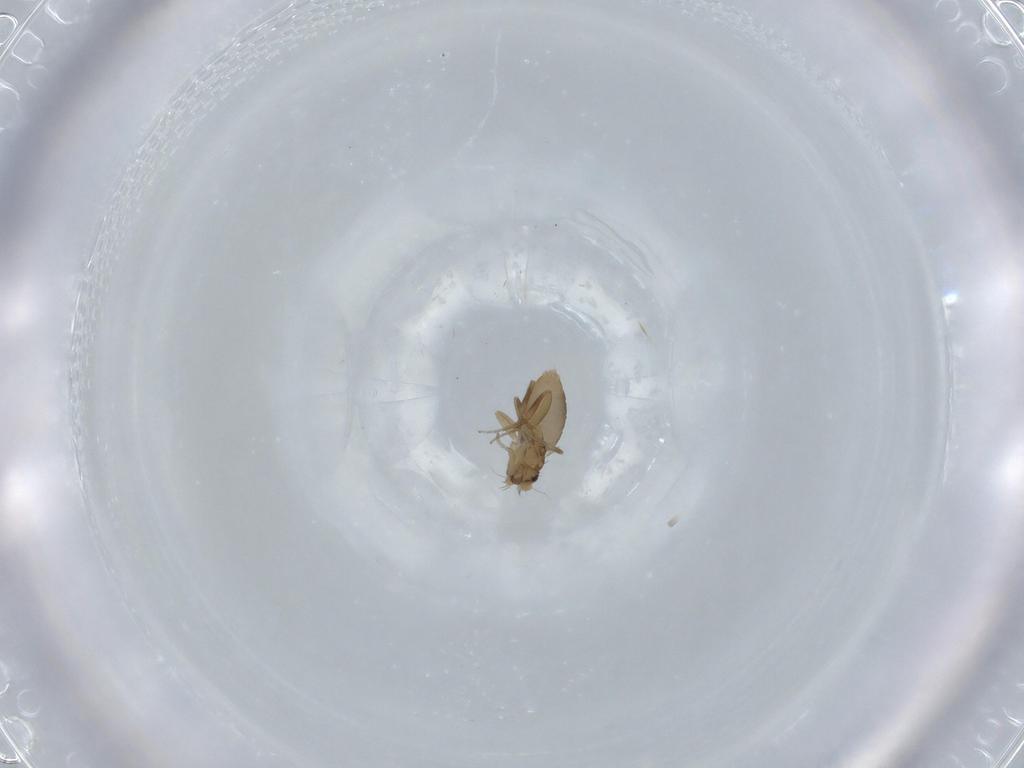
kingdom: Animalia
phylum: Arthropoda
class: Insecta
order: Diptera
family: Phoridae
